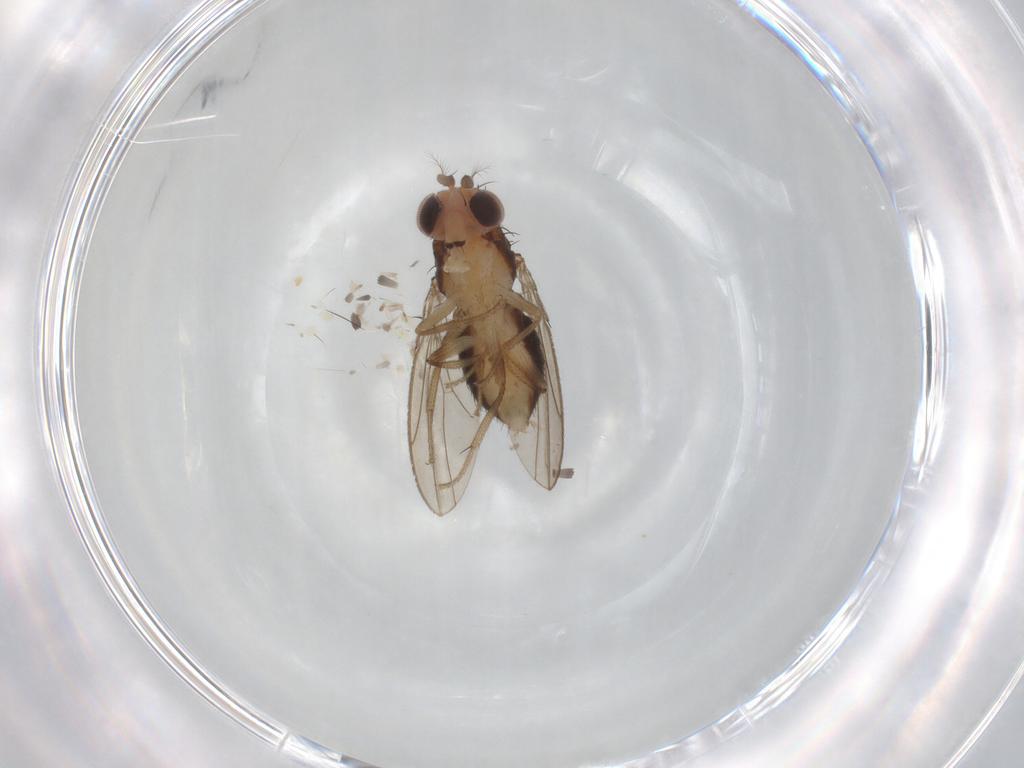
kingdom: Animalia
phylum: Arthropoda
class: Insecta
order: Diptera
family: Drosophilidae
